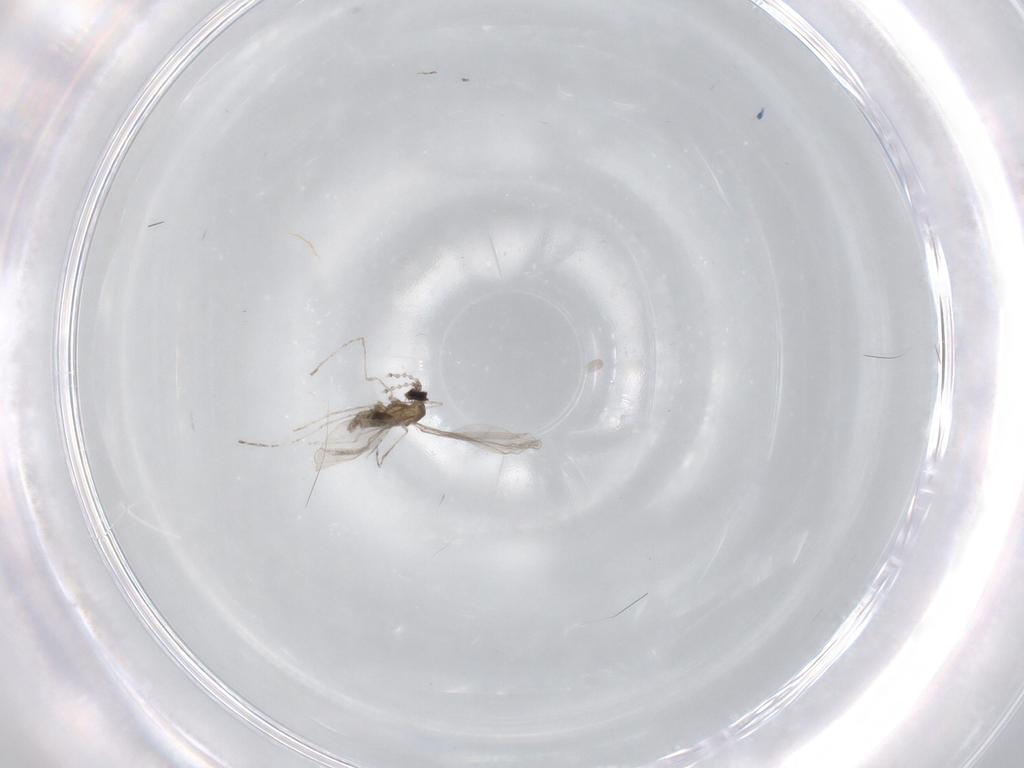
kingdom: Animalia
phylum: Arthropoda
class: Insecta
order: Diptera
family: Cecidomyiidae
